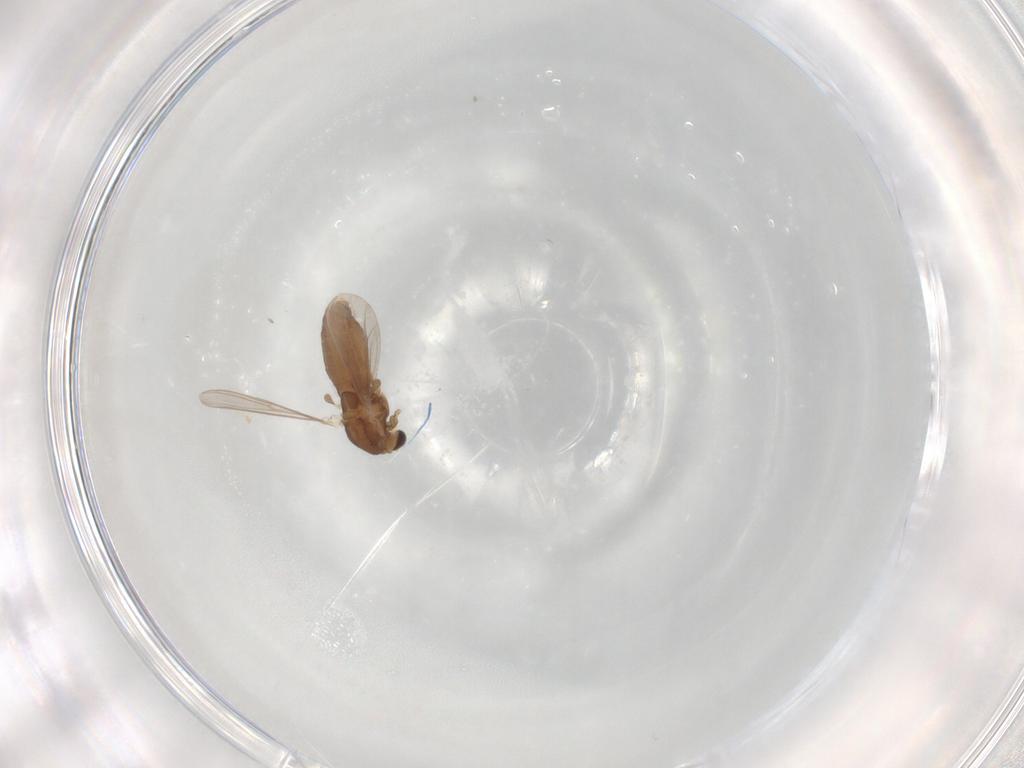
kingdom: Animalia
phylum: Arthropoda
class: Insecta
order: Diptera
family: Chironomidae
